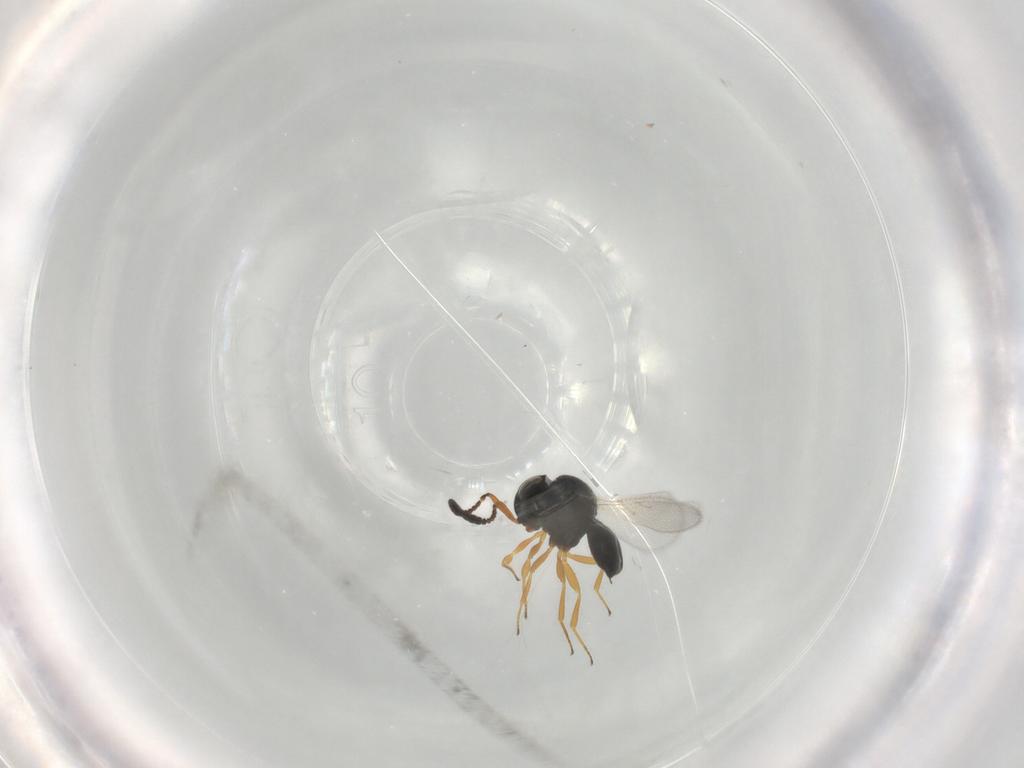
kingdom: Animalia
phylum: Arthropoda
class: Insecta
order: Hymenoptera
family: Scelionidae
